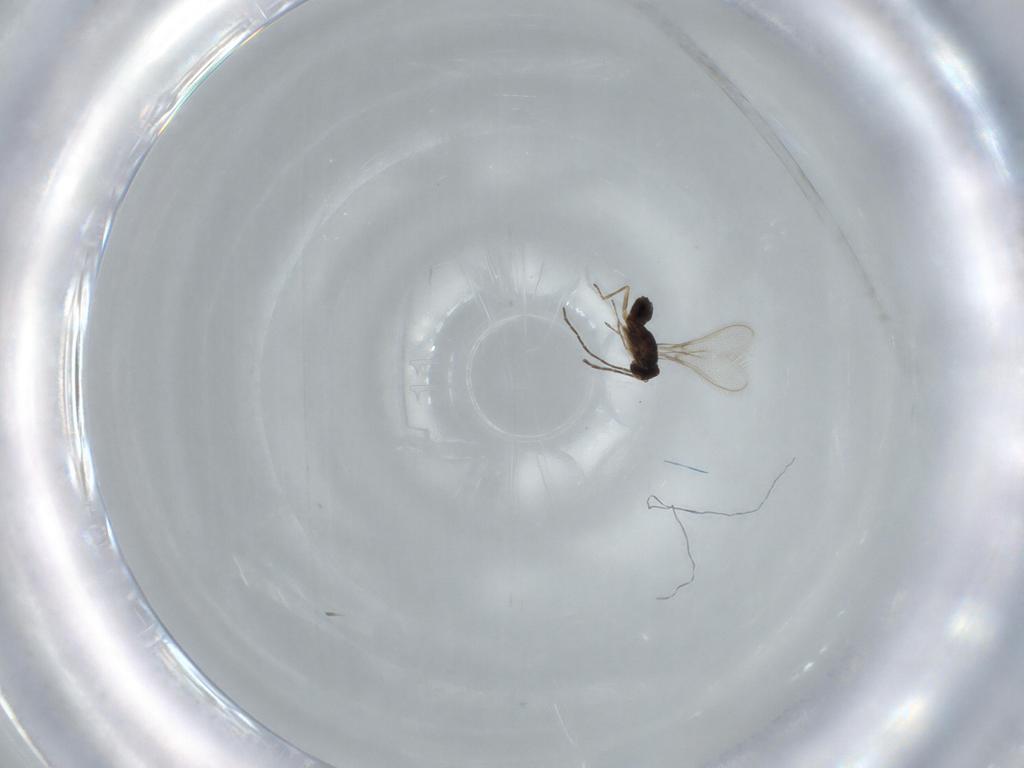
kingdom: Animalia
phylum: Arthropoda
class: Insecta
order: Hymenoptera
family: Mymaridae
